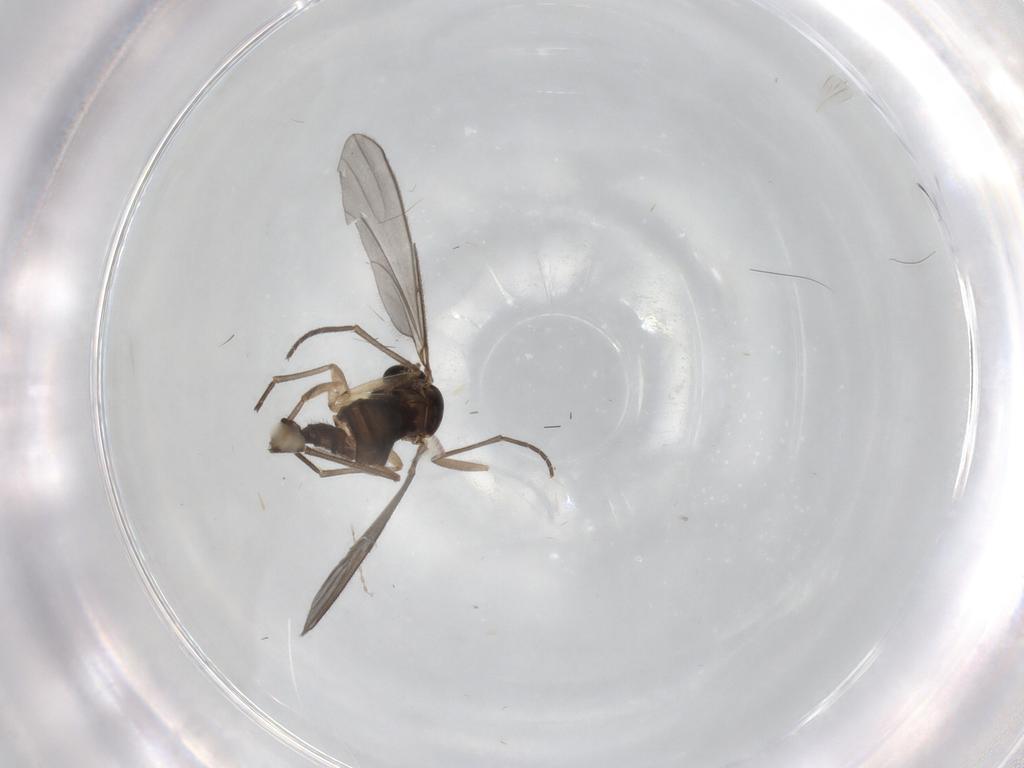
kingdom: Animalia
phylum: Arthropoda
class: Insecta
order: Diptera
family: Sciaridae
